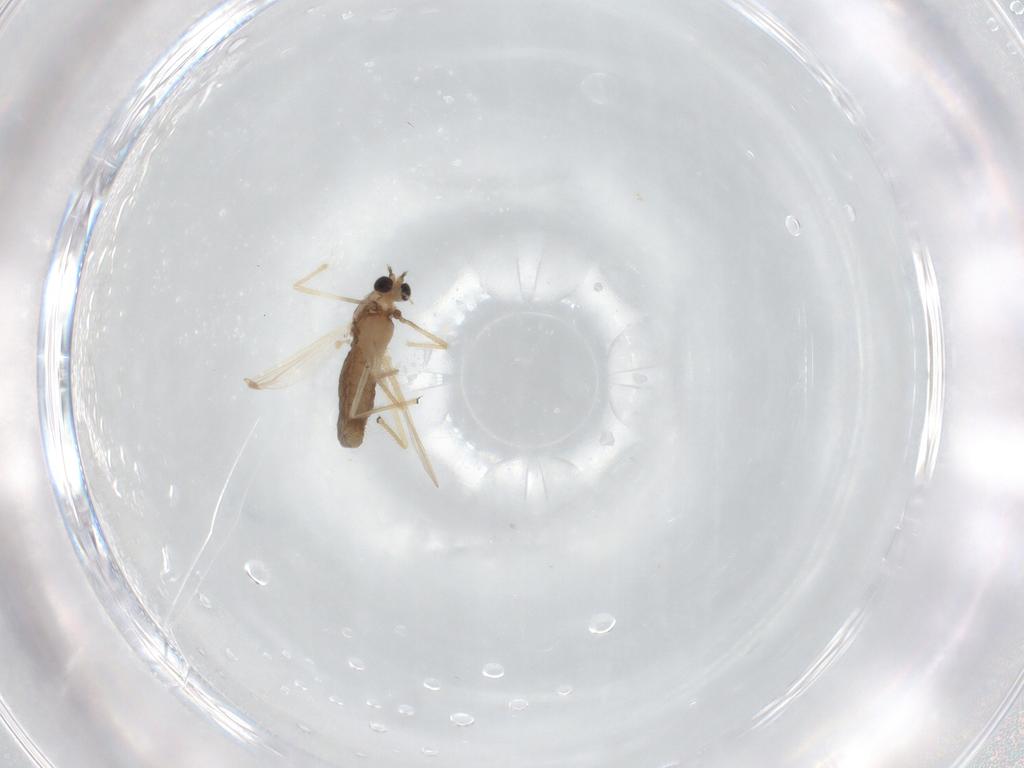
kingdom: Animalia
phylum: Arthropoda
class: Insecta
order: Diptera
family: Chironomidae
